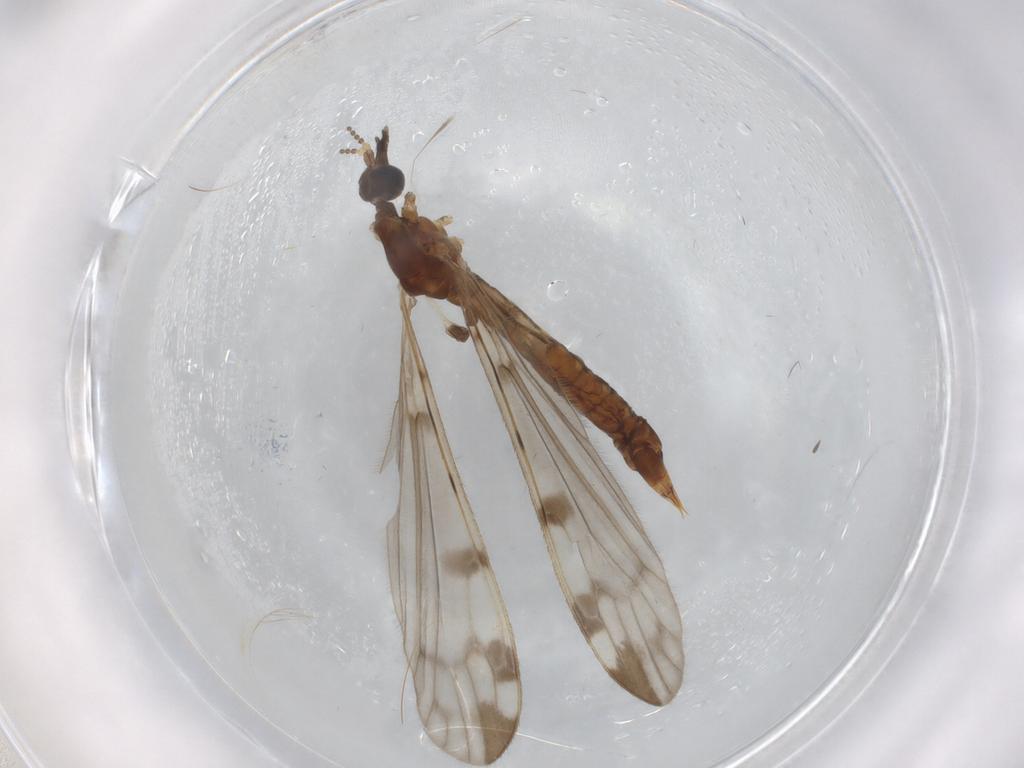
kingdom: Animalia
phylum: Arthropoda
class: Insecta
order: Diptera
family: Limoniidae
